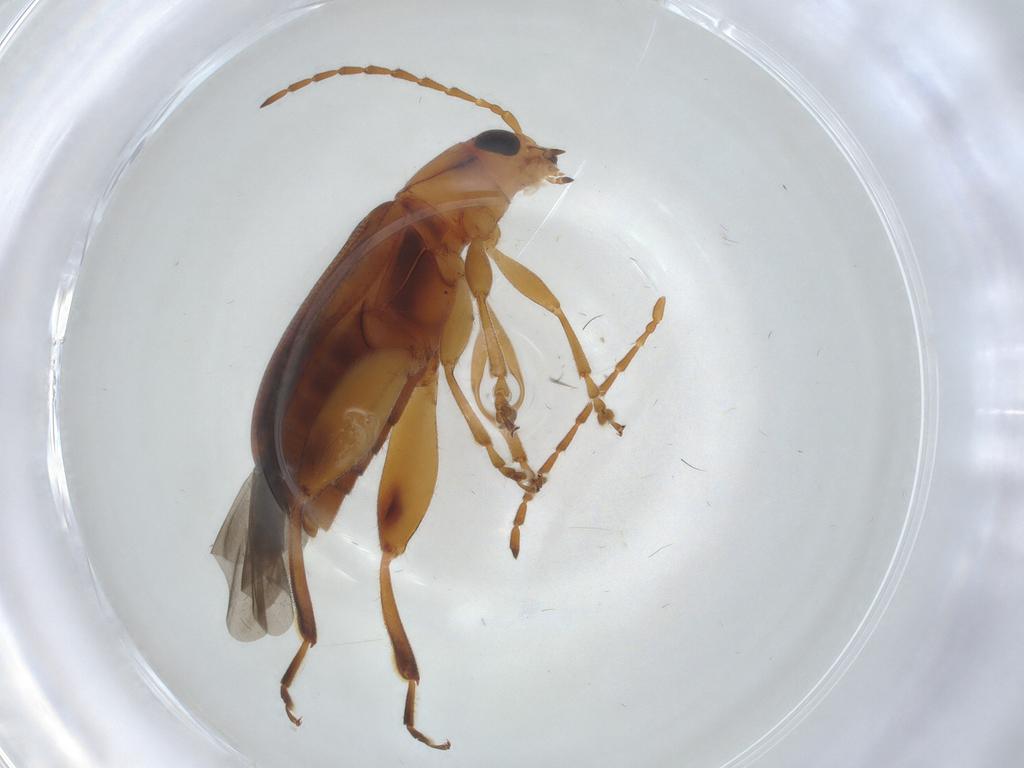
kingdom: Animalia
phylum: Arthropoda
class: Insecta
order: Coleoptera
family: Chrysomelidae
